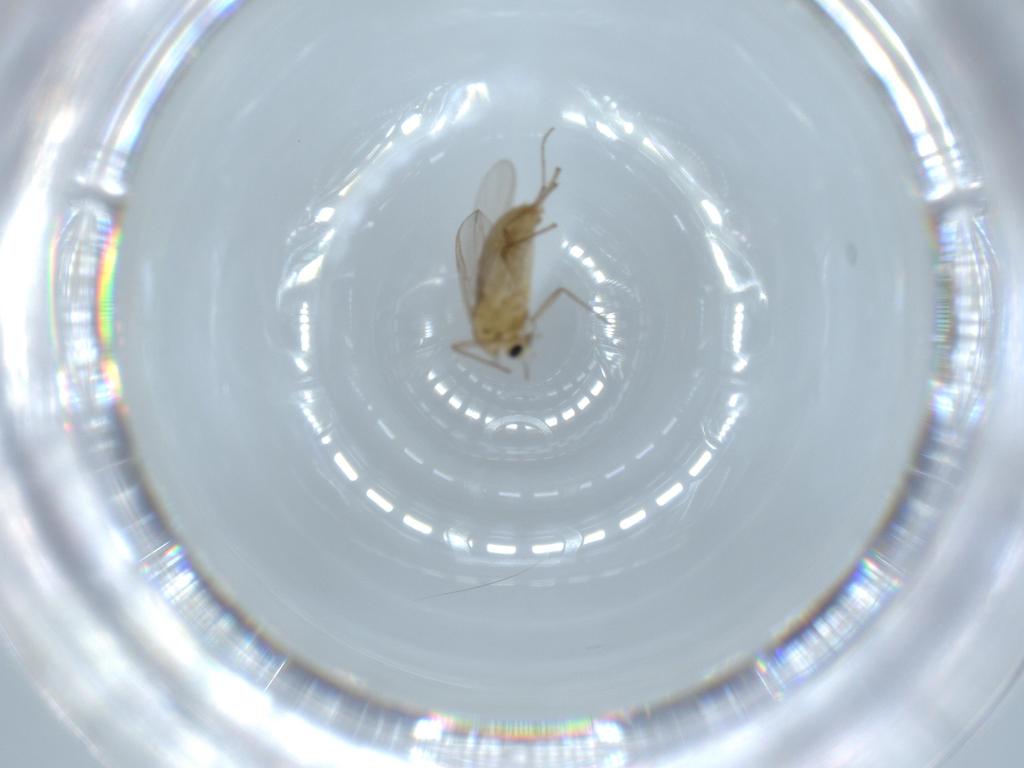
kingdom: Animalia
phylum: Arthropoda
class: Insecta
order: Diptera
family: Chironomidae
